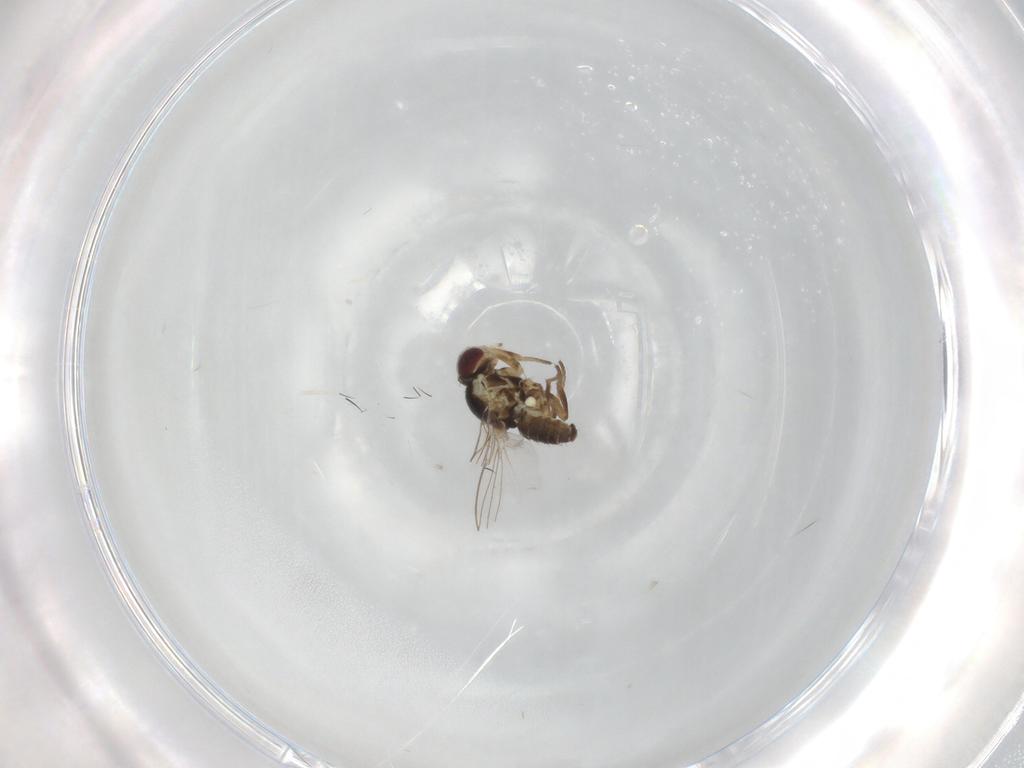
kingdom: Animalia
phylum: Arthropoda
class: Insecta
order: Diptera
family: Agromyzidae
